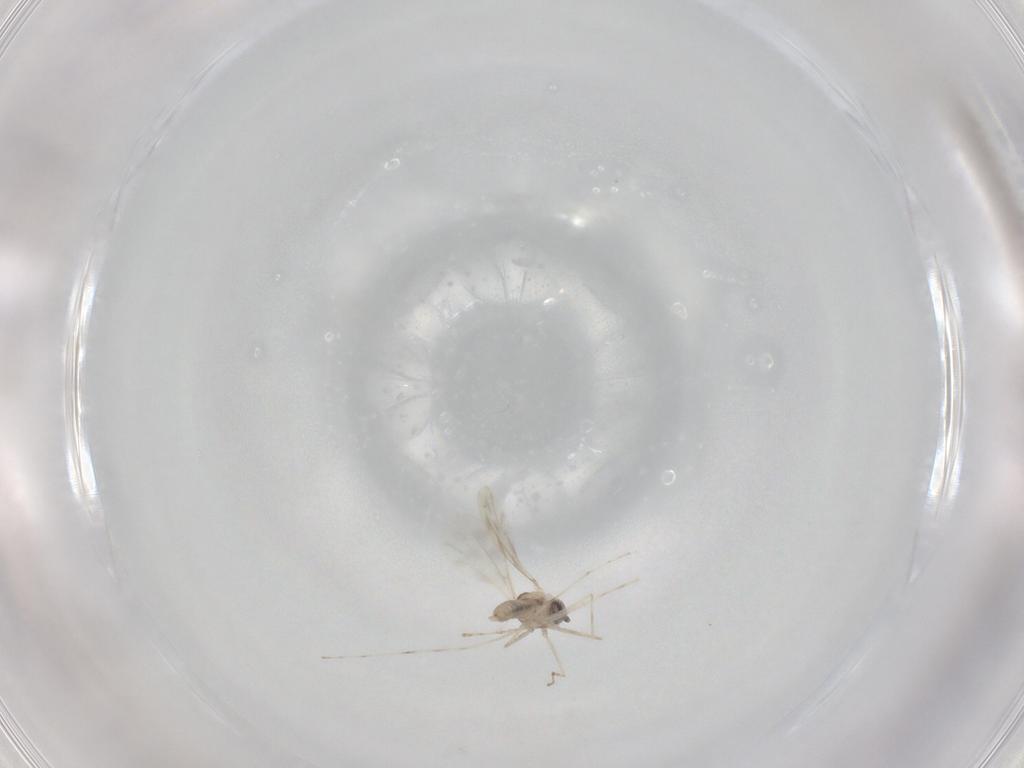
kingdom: Animalia
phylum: Arthropoda
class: Insecta
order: Diptera
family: Cecidomyiidae
